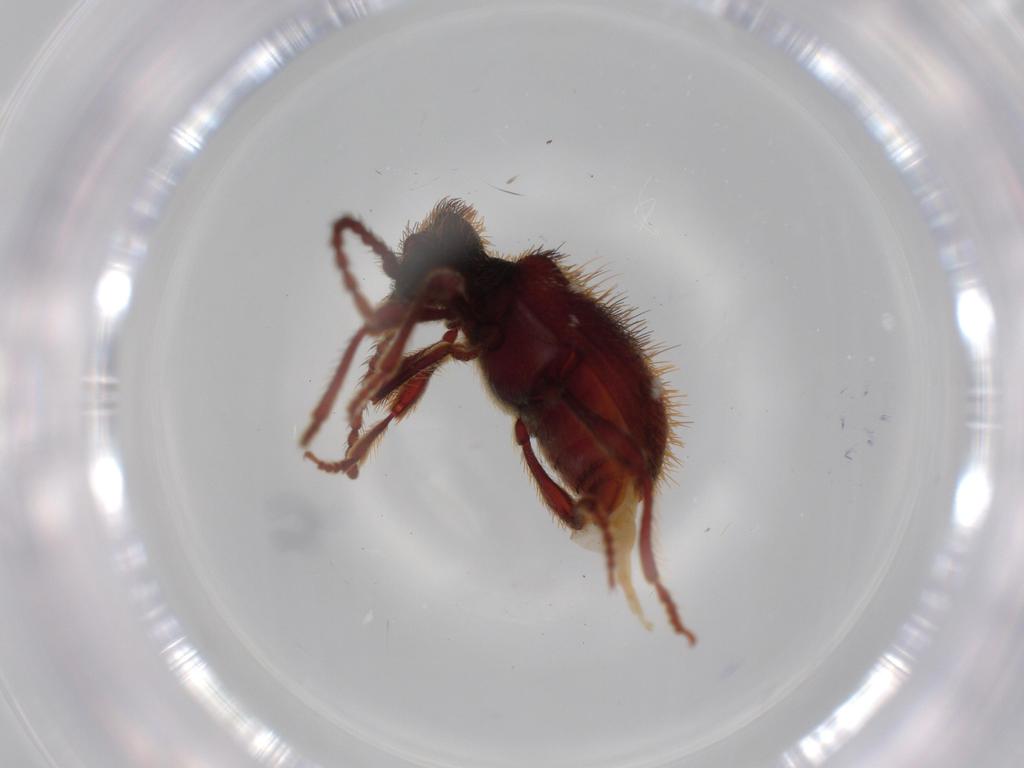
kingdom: Animalia
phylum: Arthropoda
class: Insecta
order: Coleoptera
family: Ptinidae
